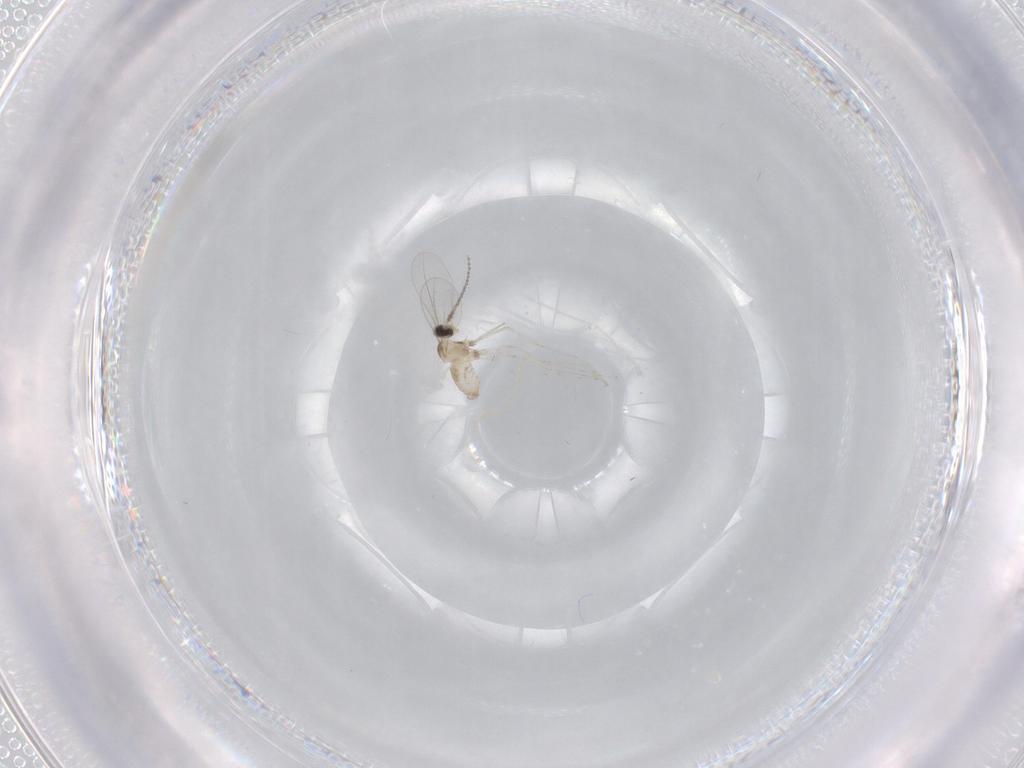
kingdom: Animalia
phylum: Arthropoda
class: Insecta
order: Diptera
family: Cecidomyiidae
